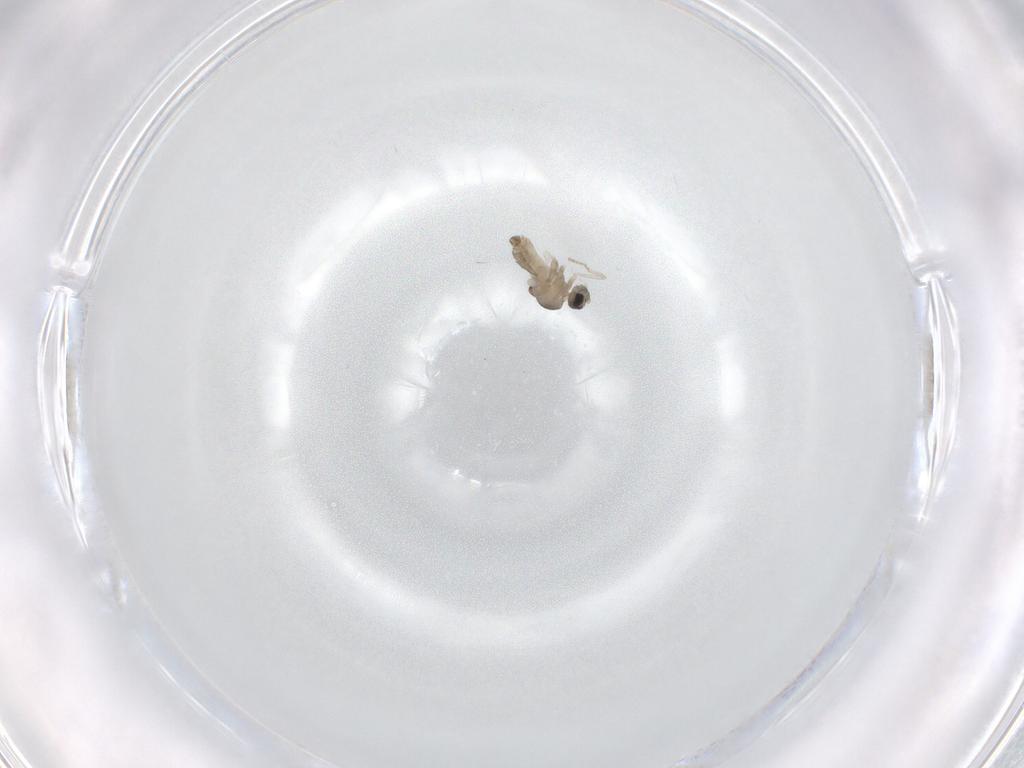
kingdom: Animalia
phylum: Arthropoda
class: Insecta
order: Diptera
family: Cecidomyiidae
